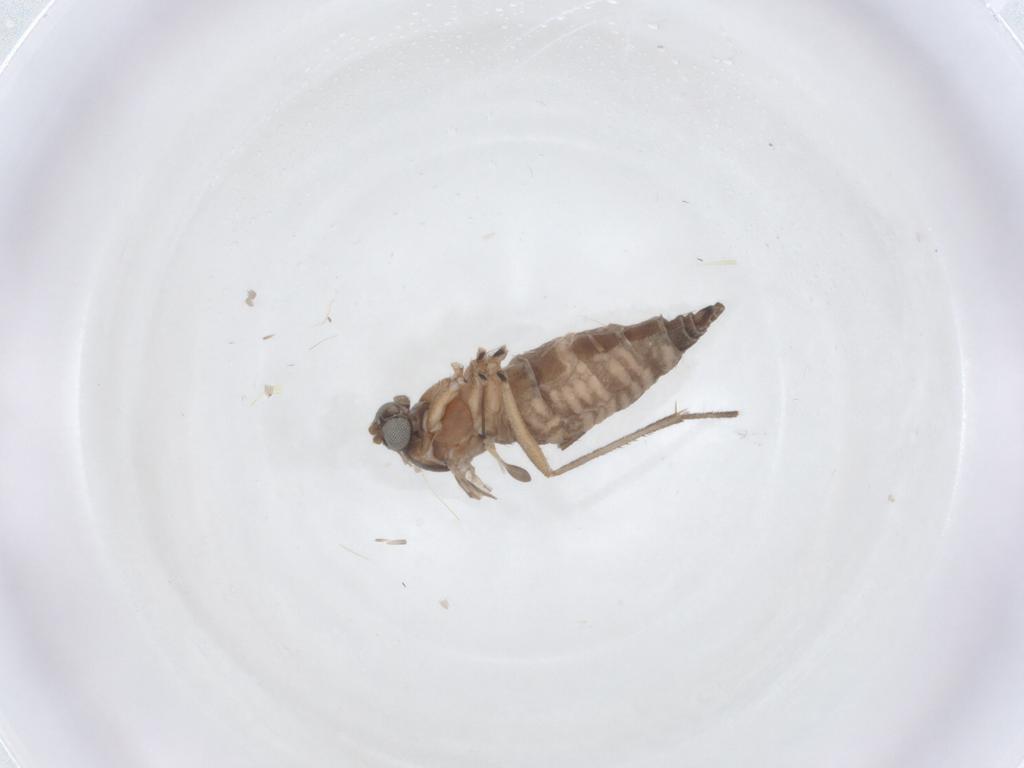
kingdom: Animalia
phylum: Arthropoda
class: Insecta
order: Diptera
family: Sciaridae
